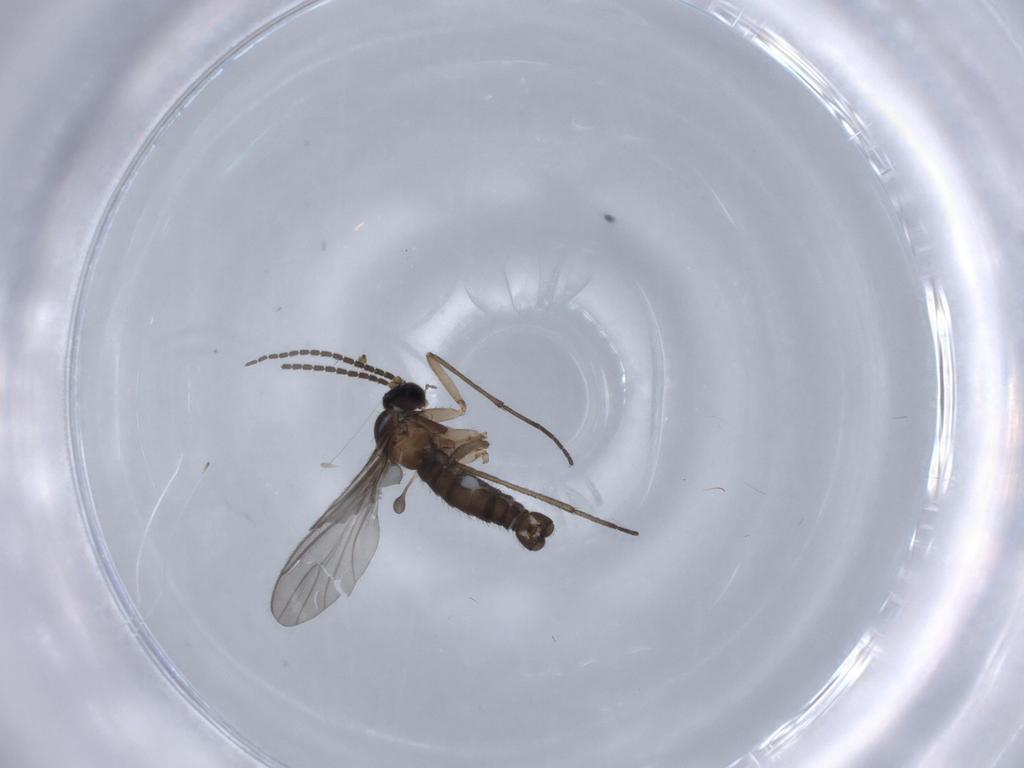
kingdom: Animalia
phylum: Arthropoda
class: Insecta
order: Diptera
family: Sciaridae
